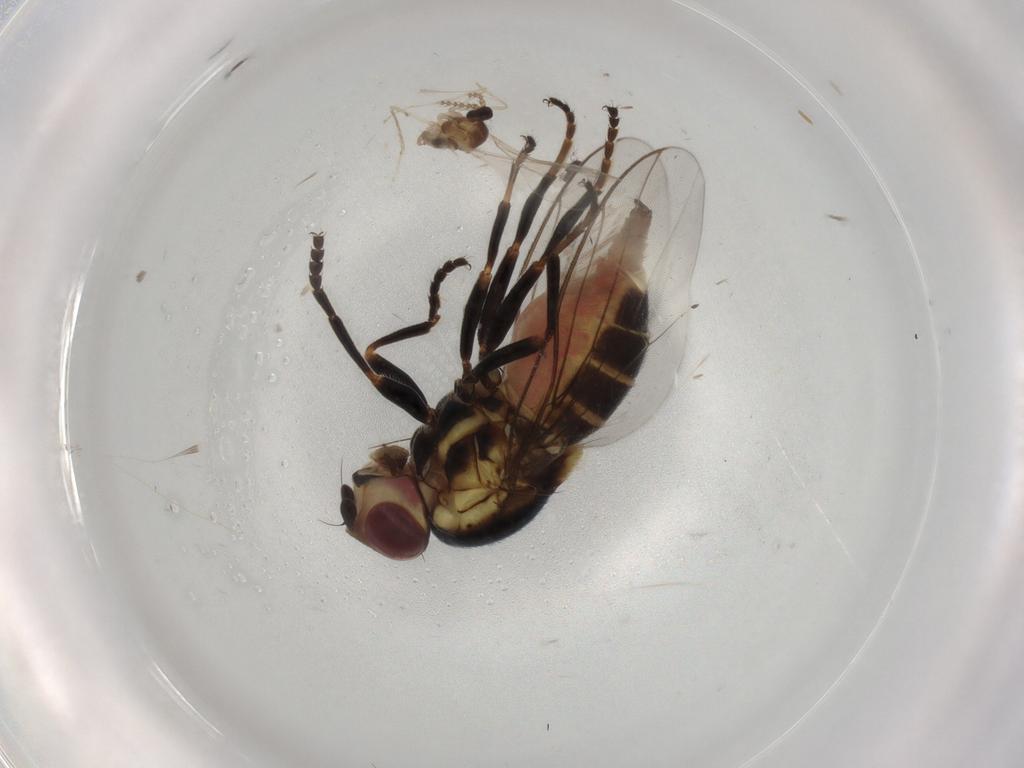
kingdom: Animalia
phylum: Arthropoda
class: Insecta
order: Diptera
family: Chloropidae
